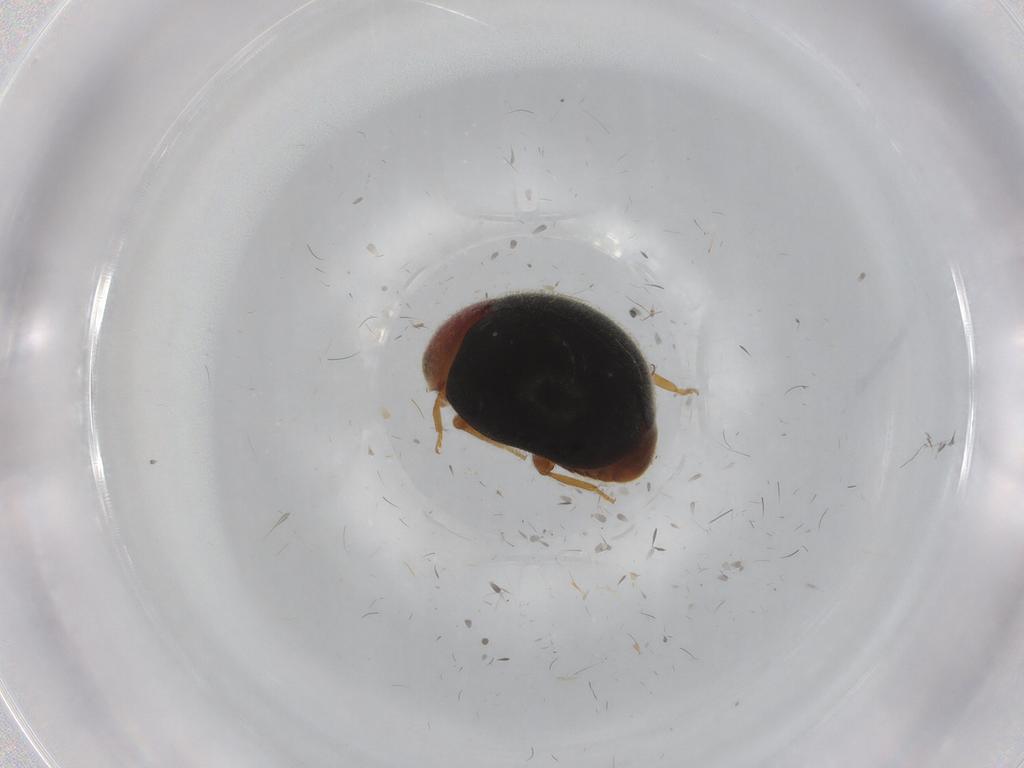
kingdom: Animalia
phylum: Arthropoda
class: Insecta
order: Coleoptera
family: Coccinellidae
